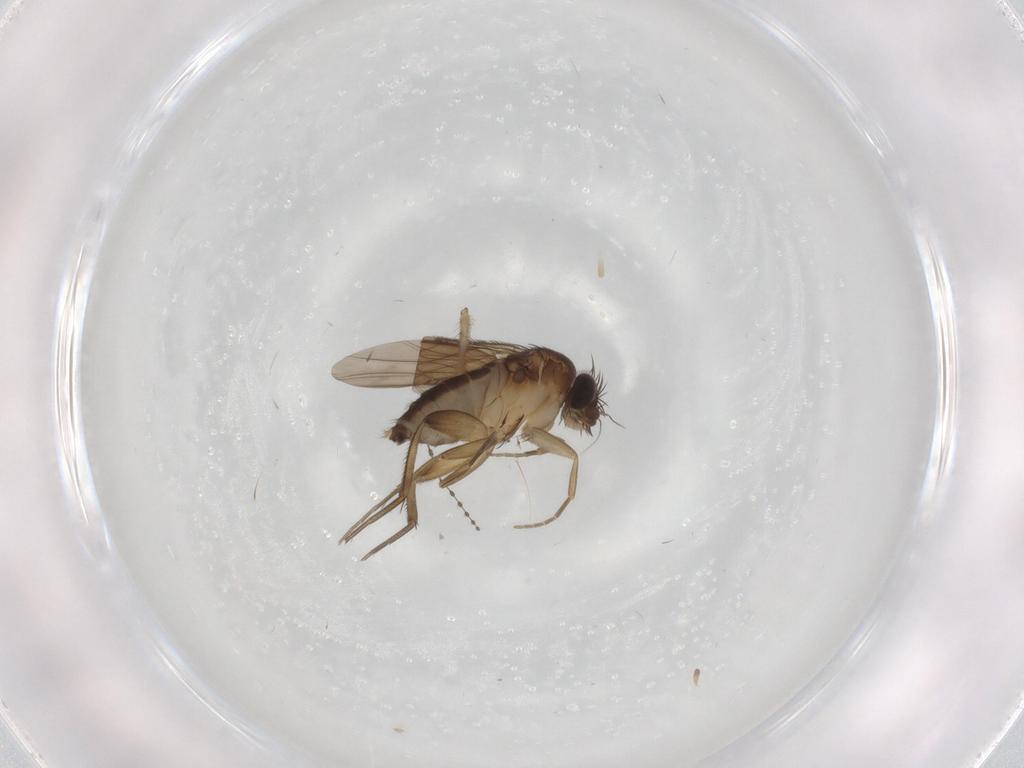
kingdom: Animalia
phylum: Arthropoda
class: Insecta
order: Diptera
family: Phoridae
